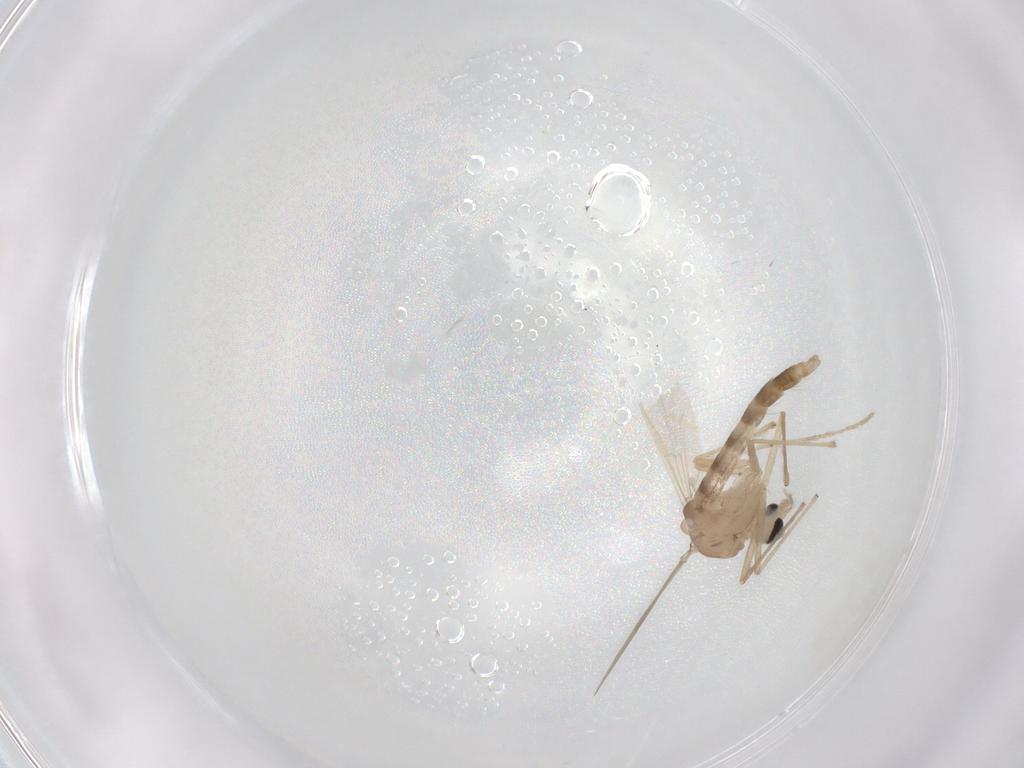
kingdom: Animalia
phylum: Arthropoda
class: Insecta
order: Diptera
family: Chironomidae
